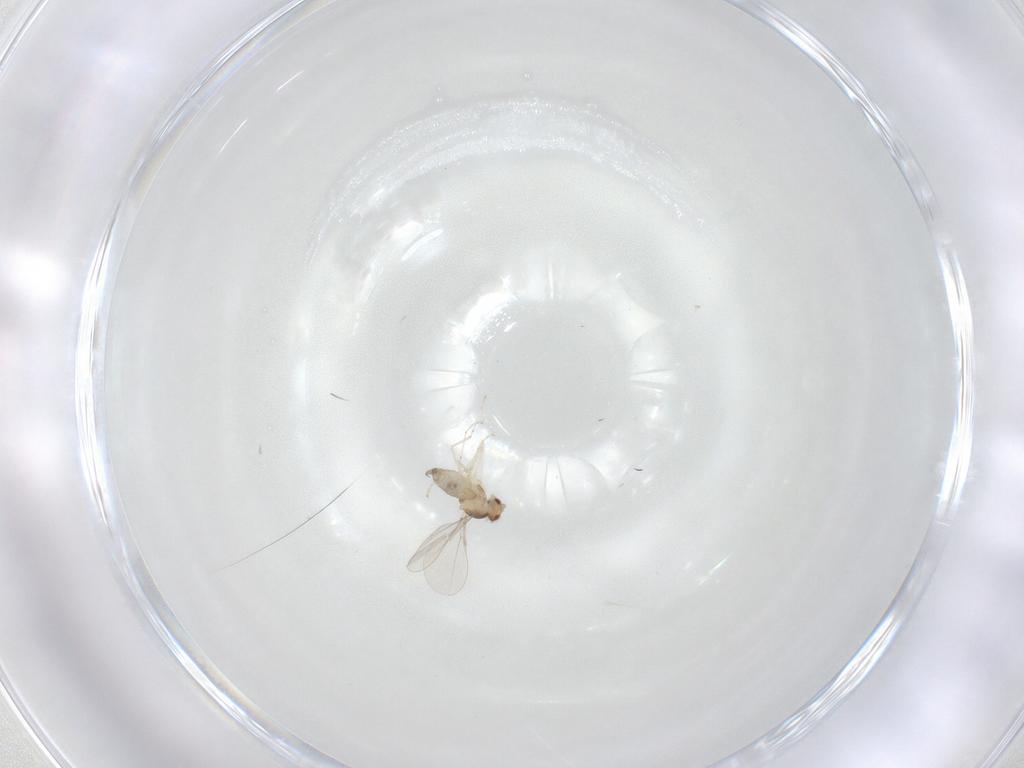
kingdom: Animalia
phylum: Arthropoda
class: Insecta
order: Diptera
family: Cecidomyiidae
